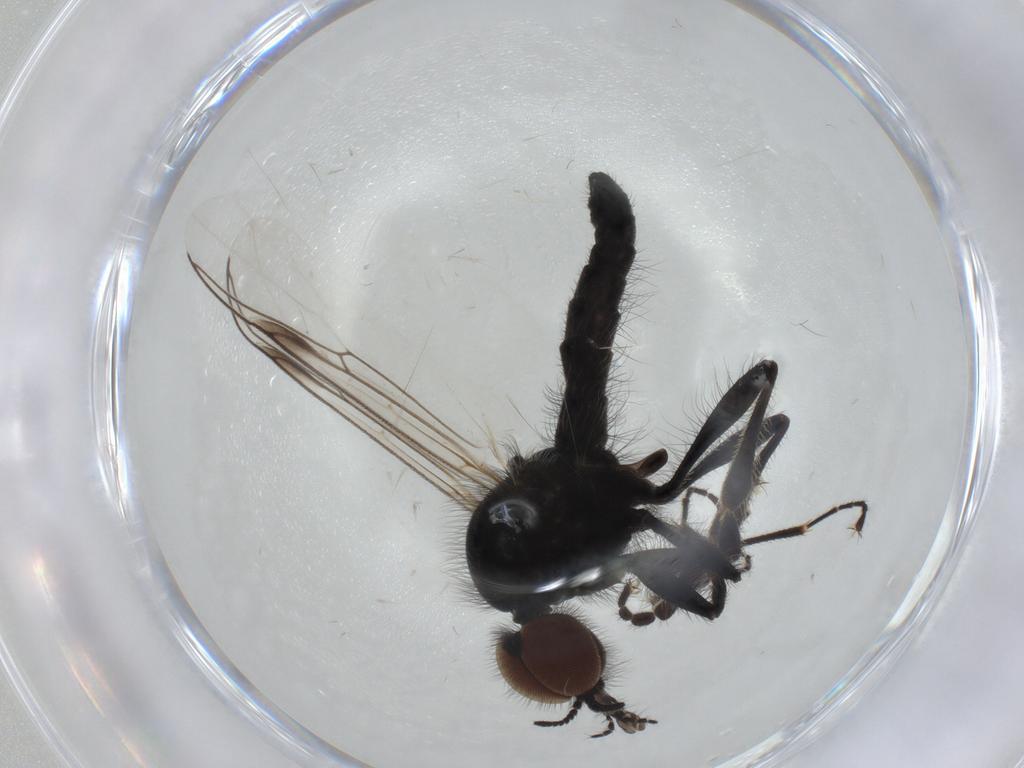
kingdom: Animalia
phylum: Arthropoda
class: Insecta
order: Diptera
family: Bibionidae
